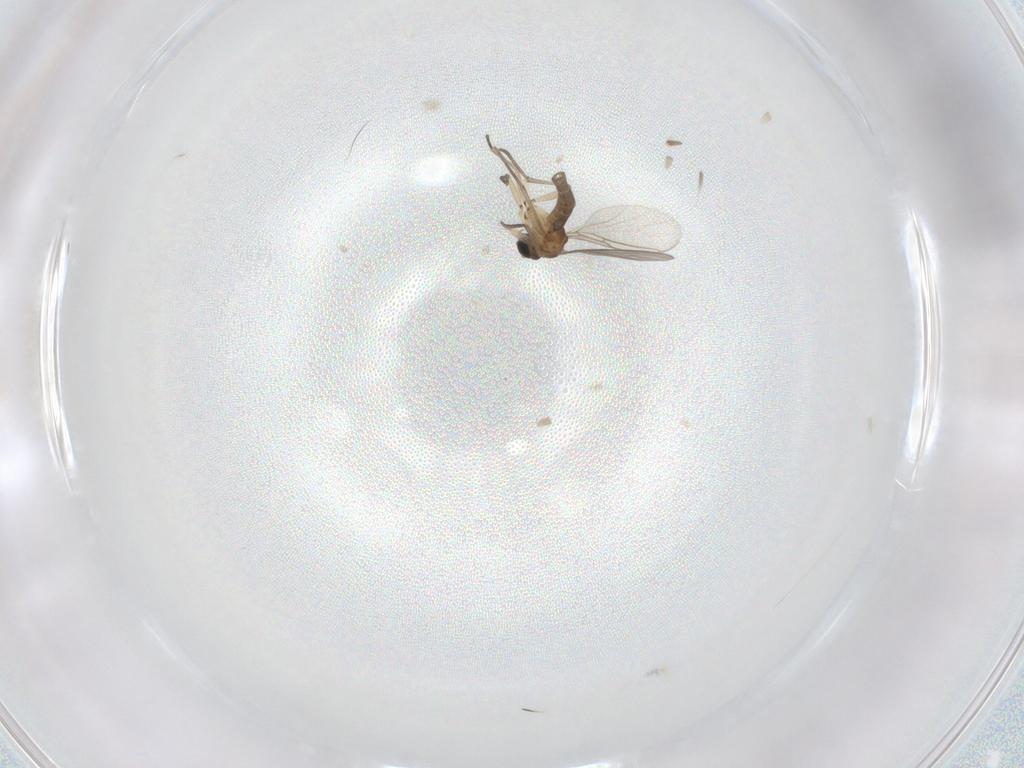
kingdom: Animalia
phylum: Arthropoda
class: Insecta
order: Diptera
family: Sciaridae
